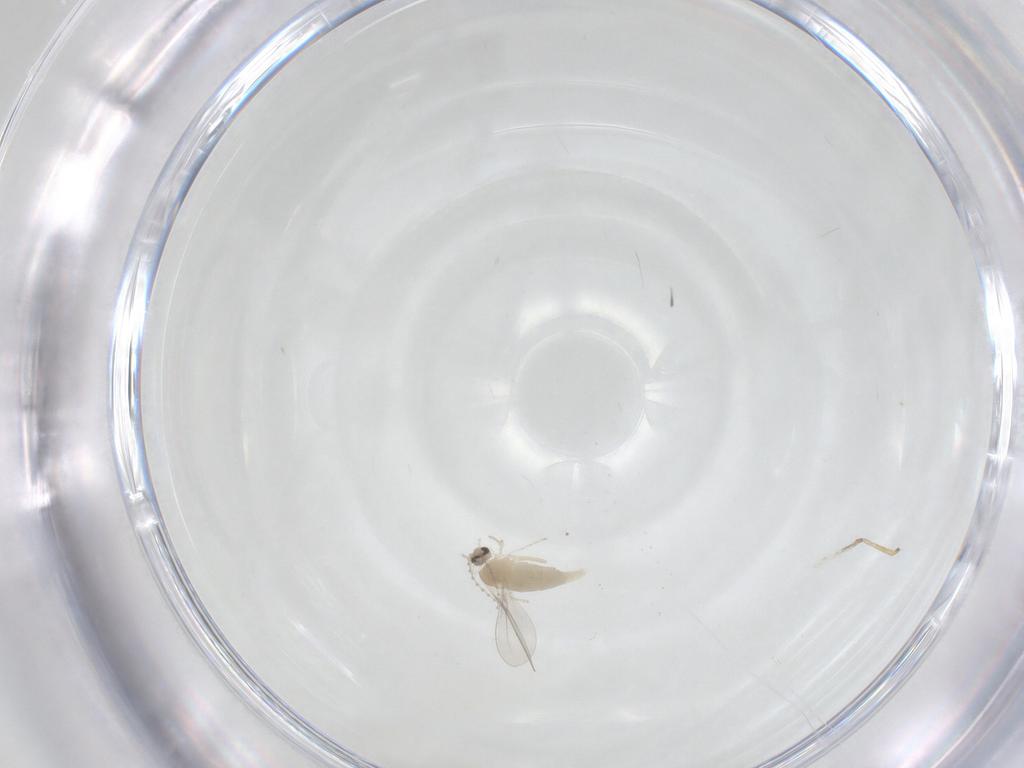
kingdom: Animalia
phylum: Arthropoda
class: Insecta
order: Diptera
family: Cecidomyiidae
